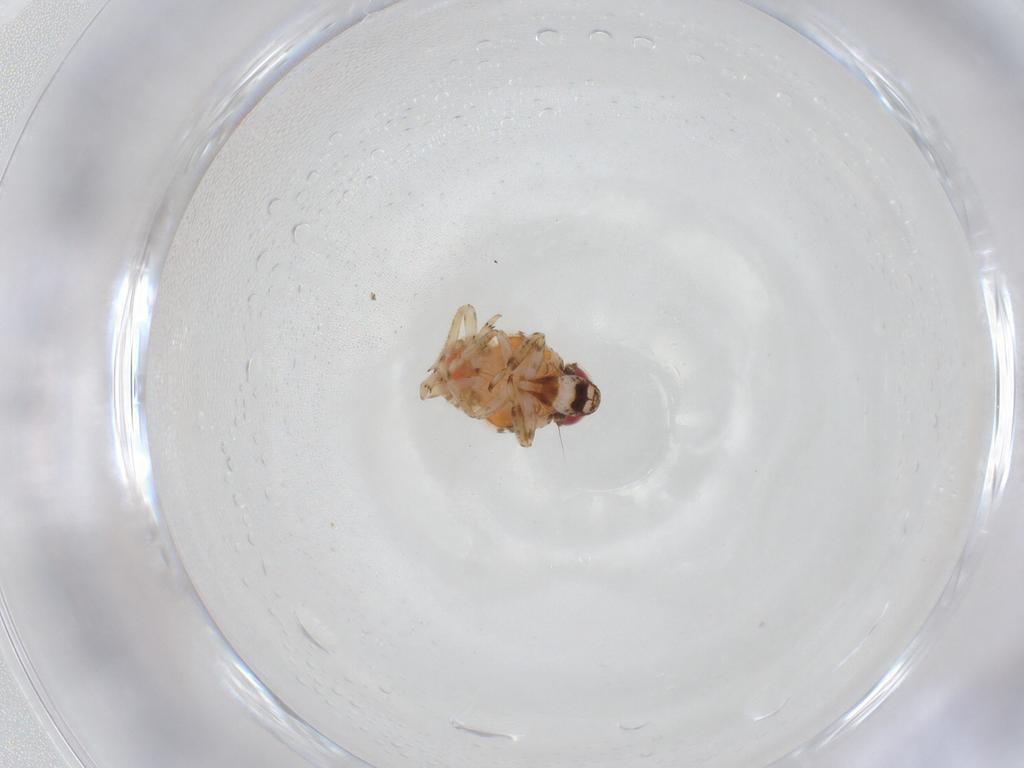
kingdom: Animalia
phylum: Arthropoda
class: Insecta
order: Hemiptera
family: Issidae
